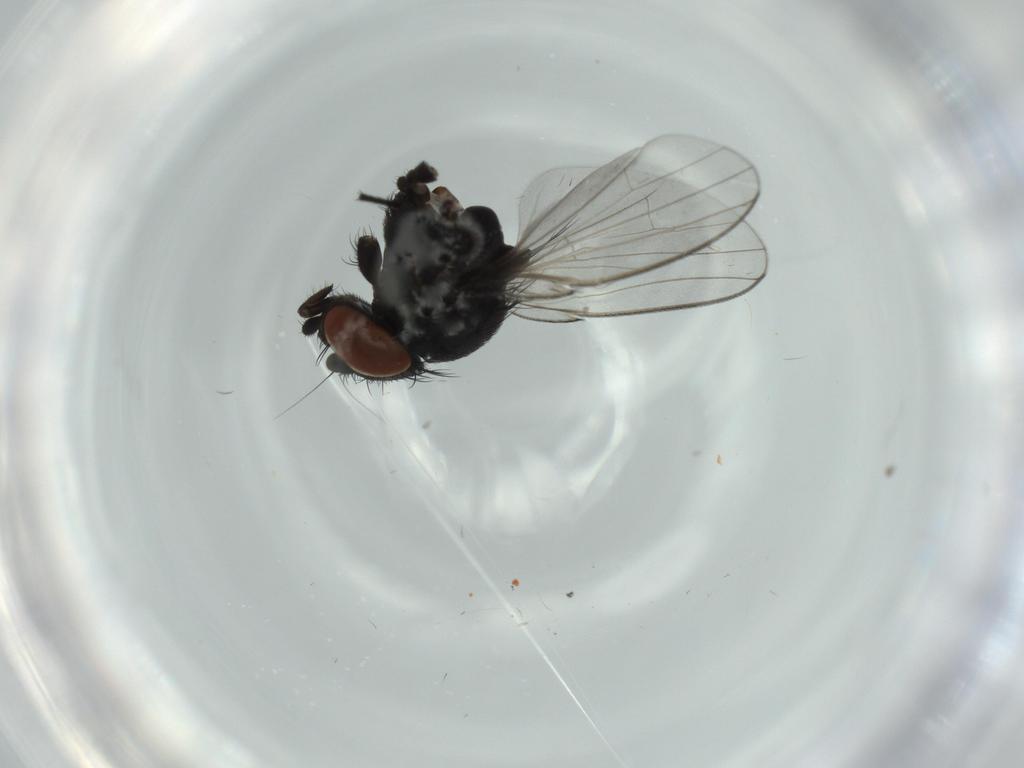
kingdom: Animalia
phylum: Arthropoda
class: Insecta
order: Diptera
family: Milichiidae
